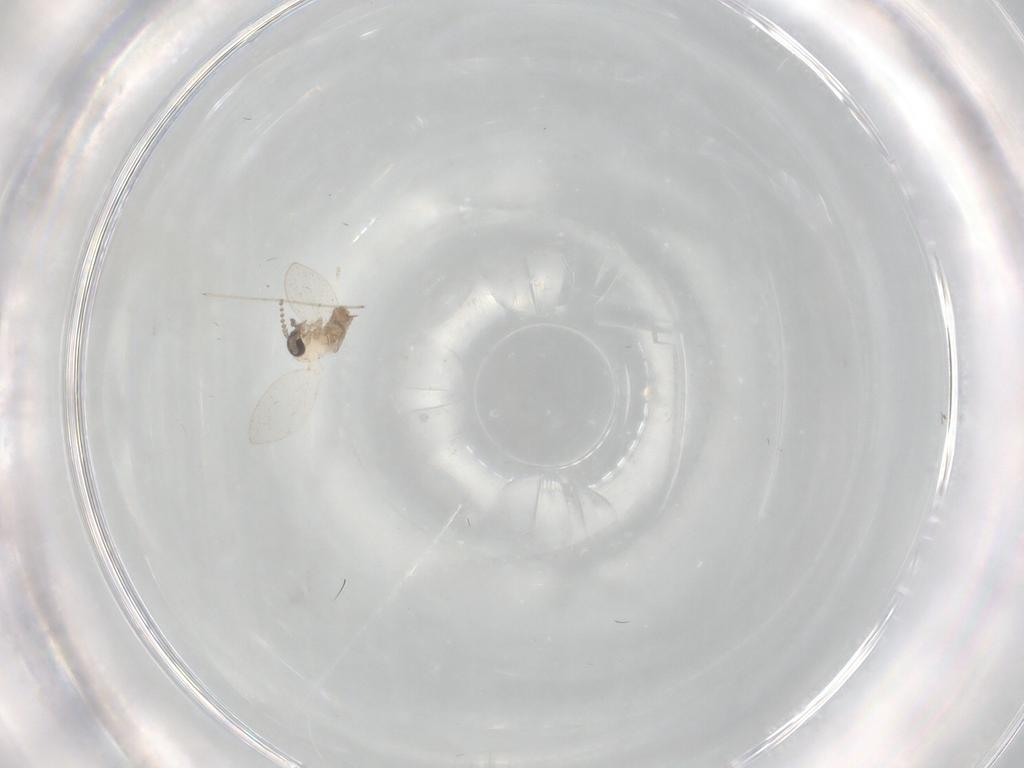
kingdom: Animalia
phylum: Arthropoda
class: Insecta
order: Diptera
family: Psychodidae
